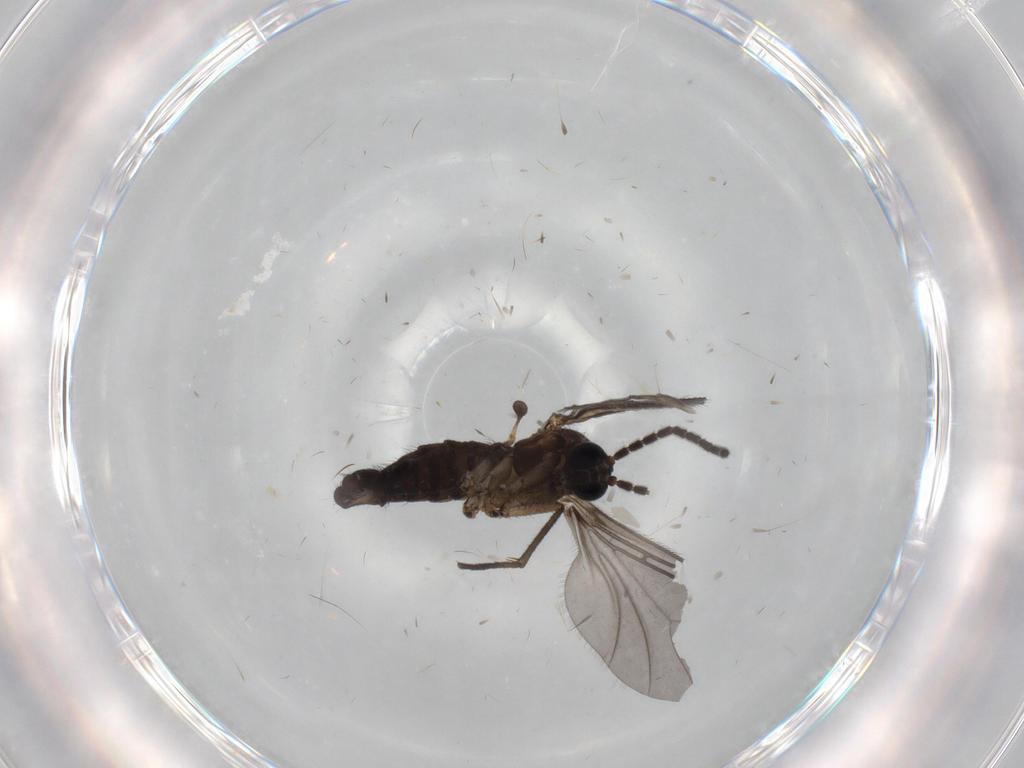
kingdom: Animalia
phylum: Arthropoda
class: Insecta
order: Diptera
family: Sciaridae
